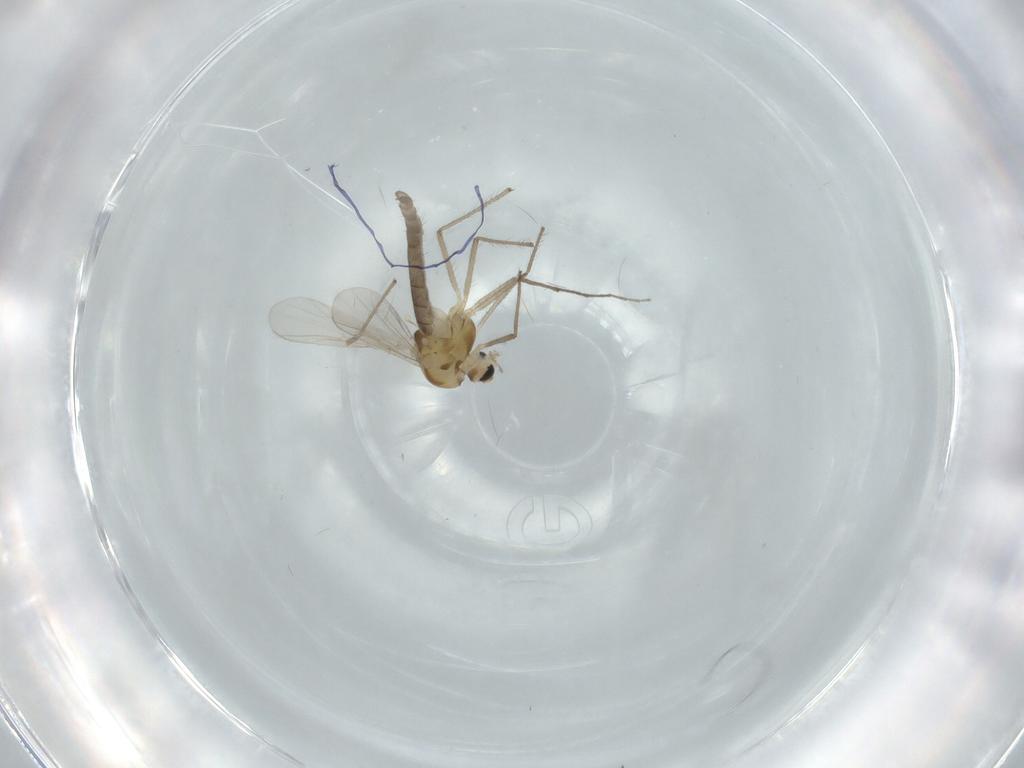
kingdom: Animalia
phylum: Arthropoda
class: Insecta
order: Diptera
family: Chironomidae
